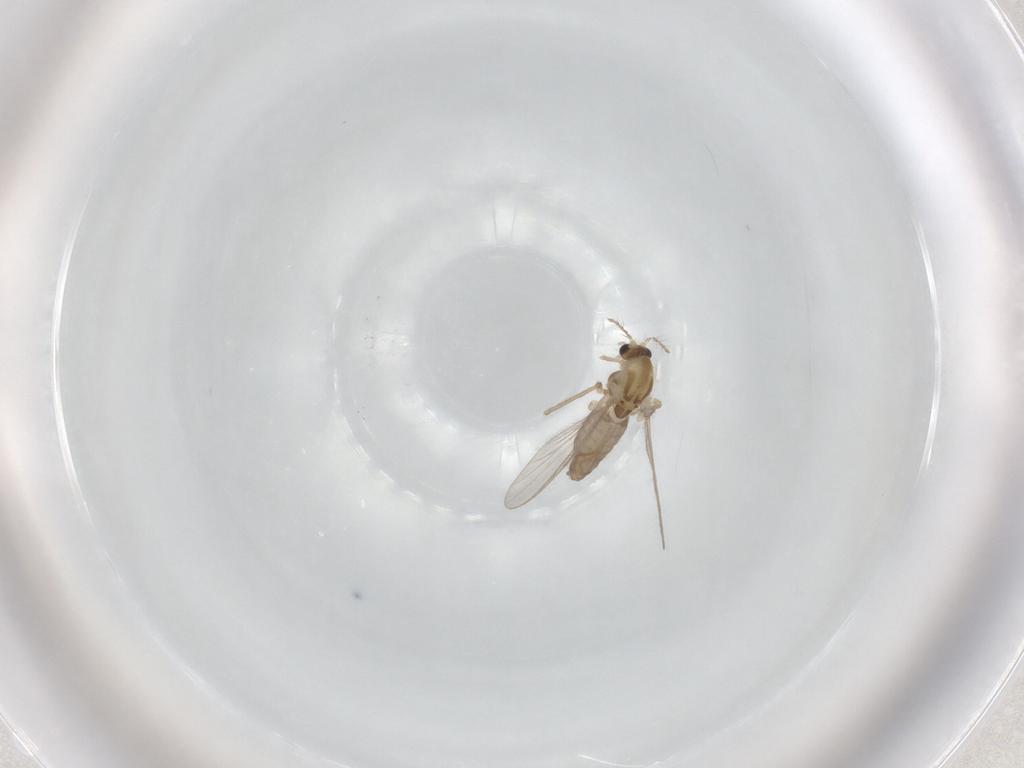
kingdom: Animalia
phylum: Arthropoda
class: Insecta
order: Diptera
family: Chironomidae
